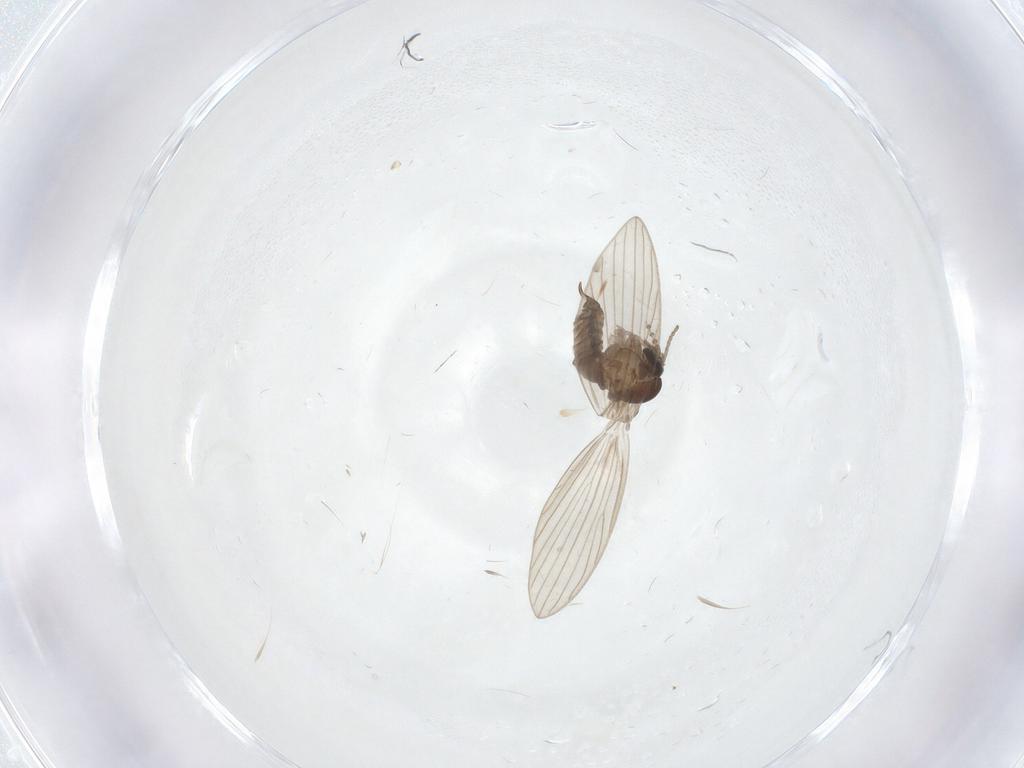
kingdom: Animalia
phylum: Arthropoda
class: Insecta
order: Diptera
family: Psychodidae
